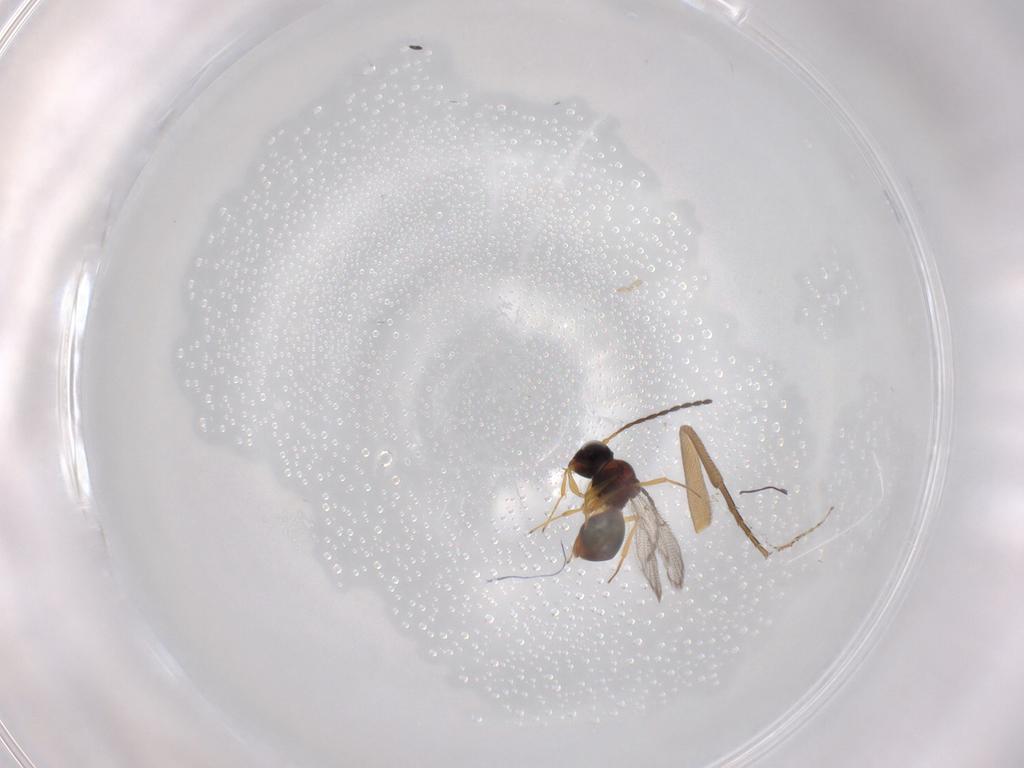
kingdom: Animalia
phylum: Arthropoda
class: Insecta
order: Hymenoptera
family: Figitidae
